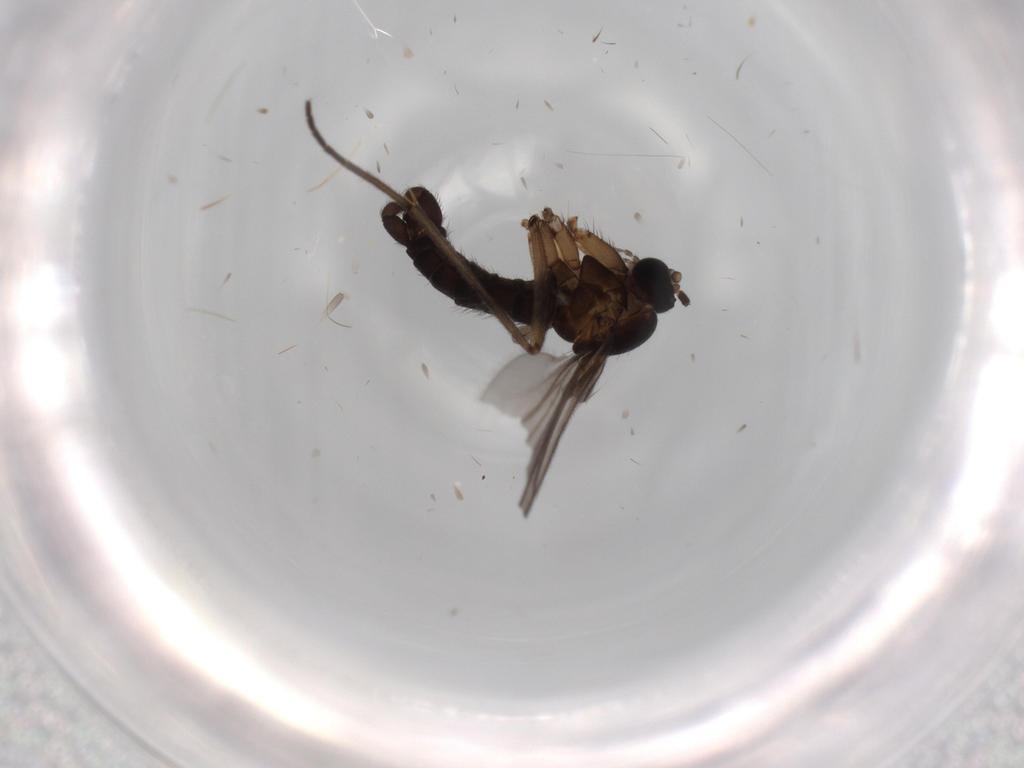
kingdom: Animalia
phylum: Arthropoda
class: Insecta
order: Diptera
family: Sciaridae
